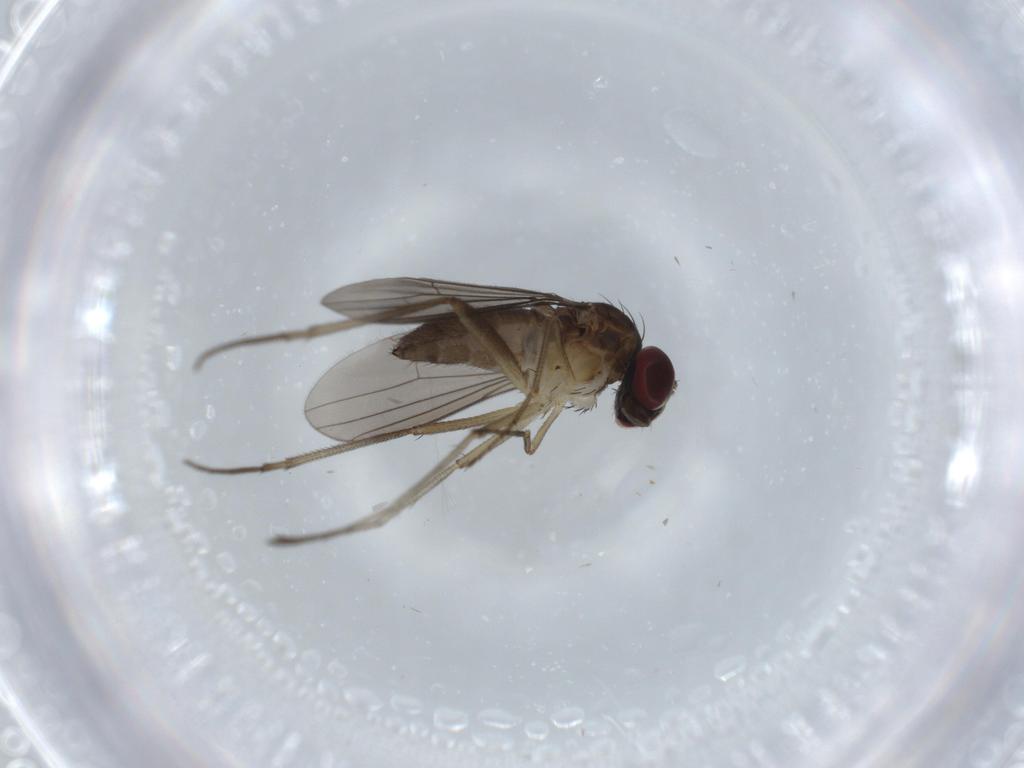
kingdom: Animalia
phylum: Arthropoda
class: Insecta
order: Diptera
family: Dolichopodidae
